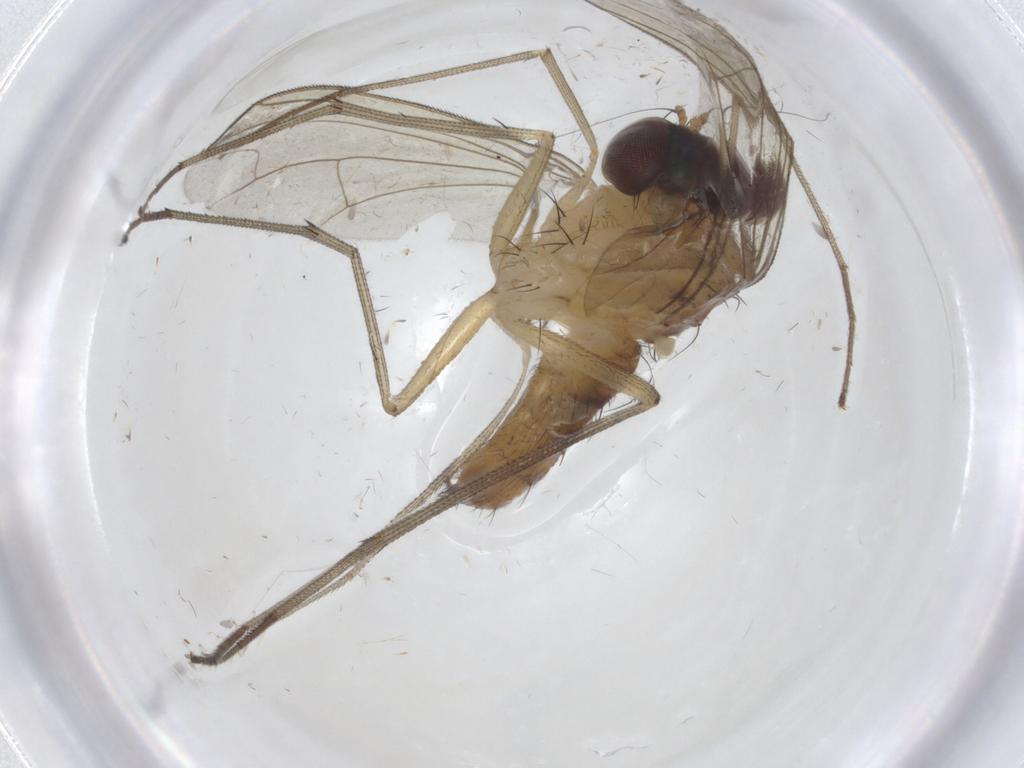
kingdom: Animalia
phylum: Arthropoda
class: Insecta
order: Diptera
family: Dolichopodidae
